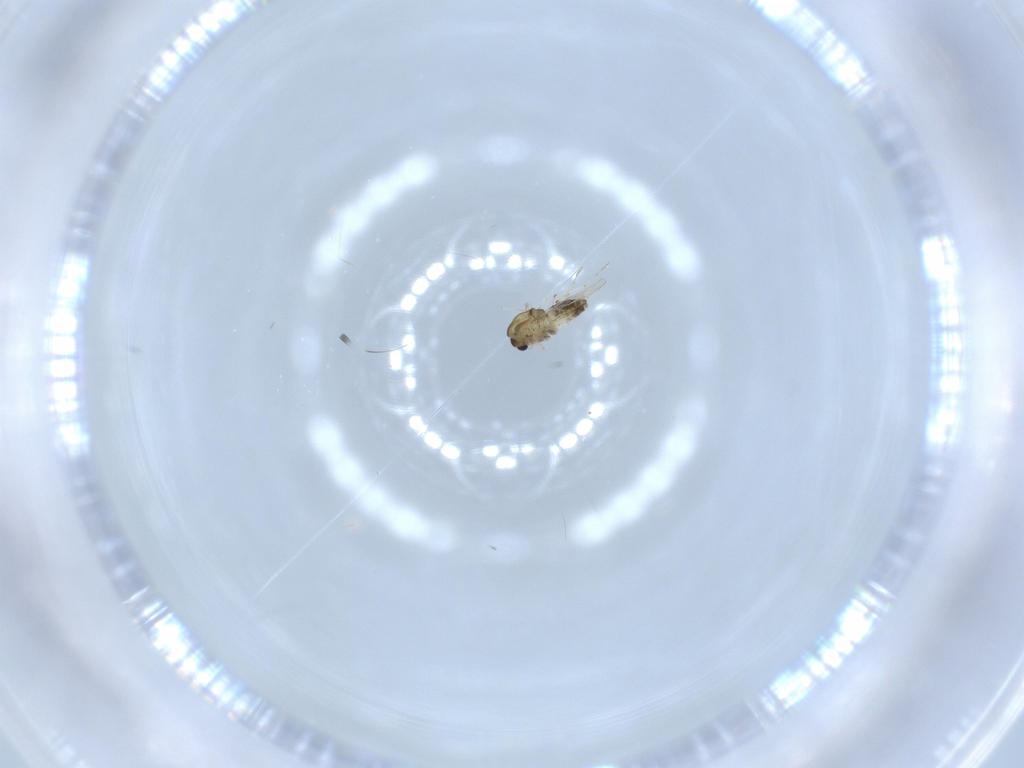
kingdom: Animalia
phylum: Arthropoda
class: Insecta
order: Diptera
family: Chironomidae
